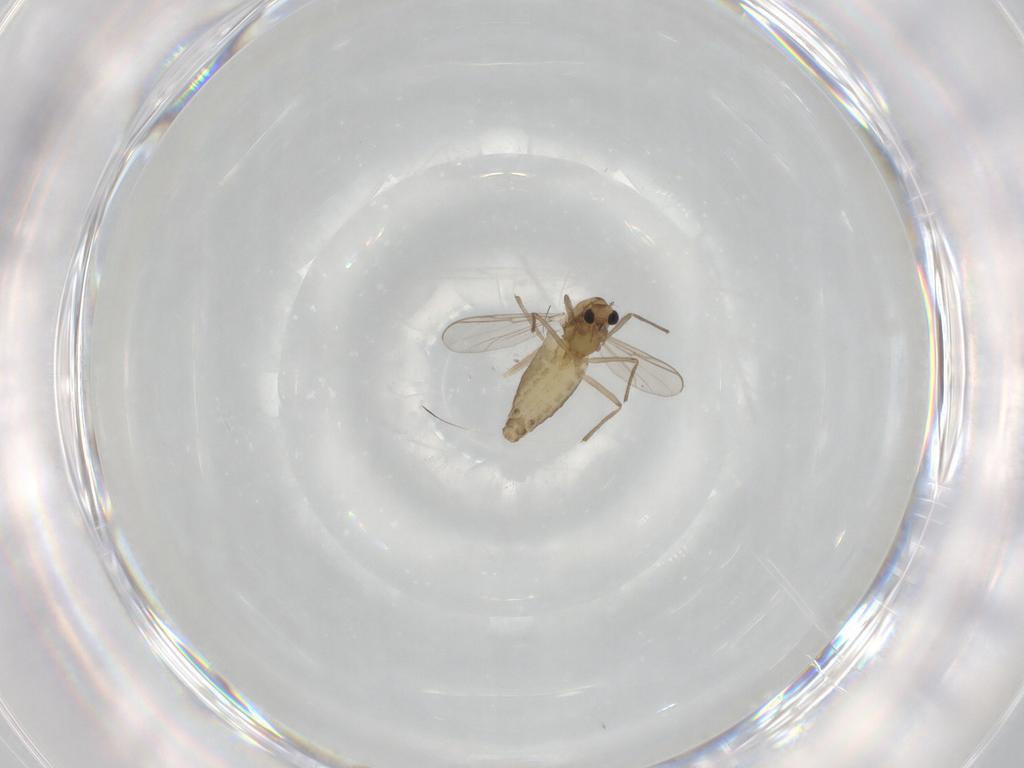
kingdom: Animalia
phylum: Arthropoda
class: Insecta
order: Diptera
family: Chironomidae
